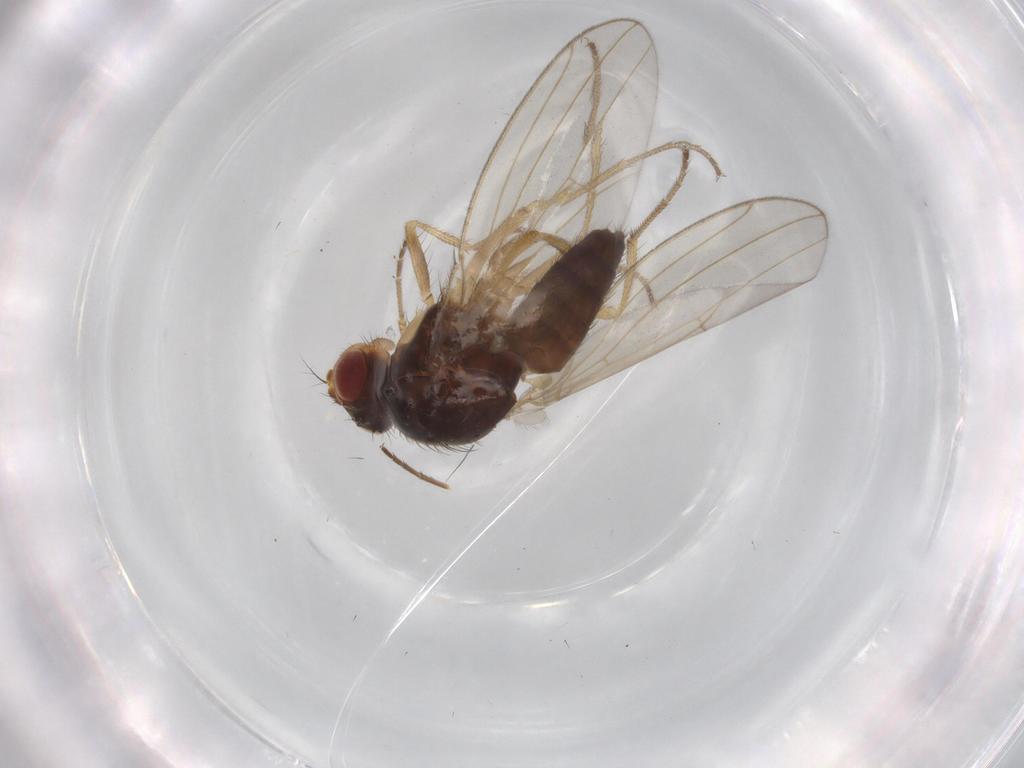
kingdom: Animalia
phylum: Arthropoda
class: Insecta
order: Diptera
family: Drosophilidae
